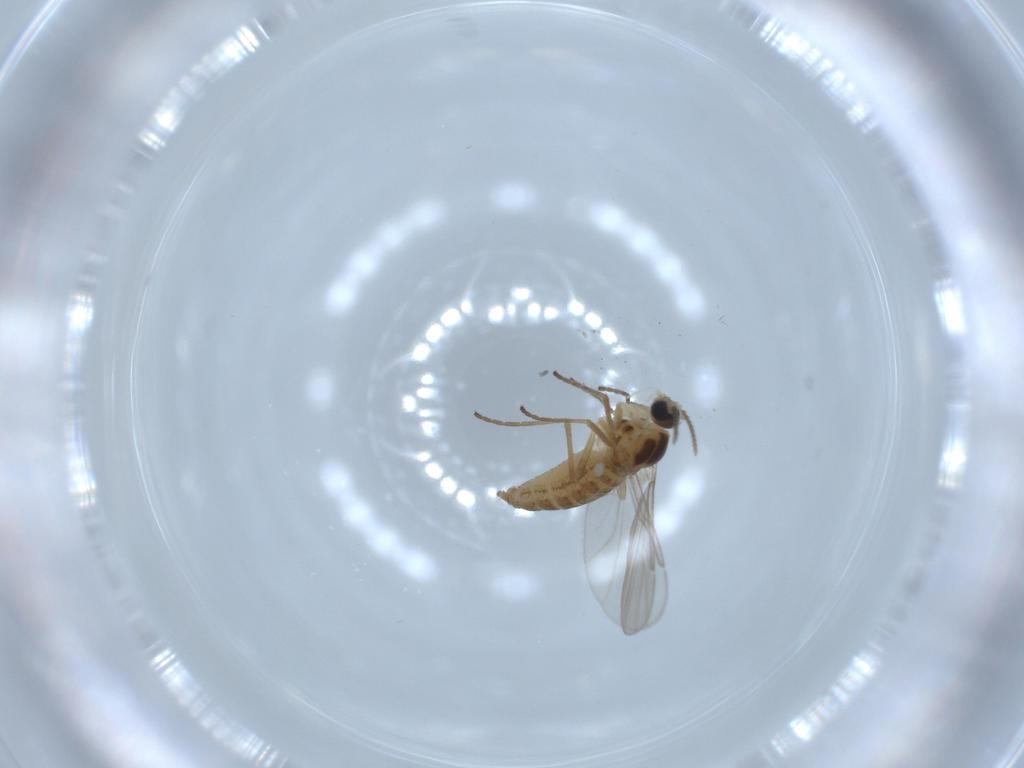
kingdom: Animalia
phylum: Arthropoda
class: Insecta
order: Diptera
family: Cecidomyiidae
